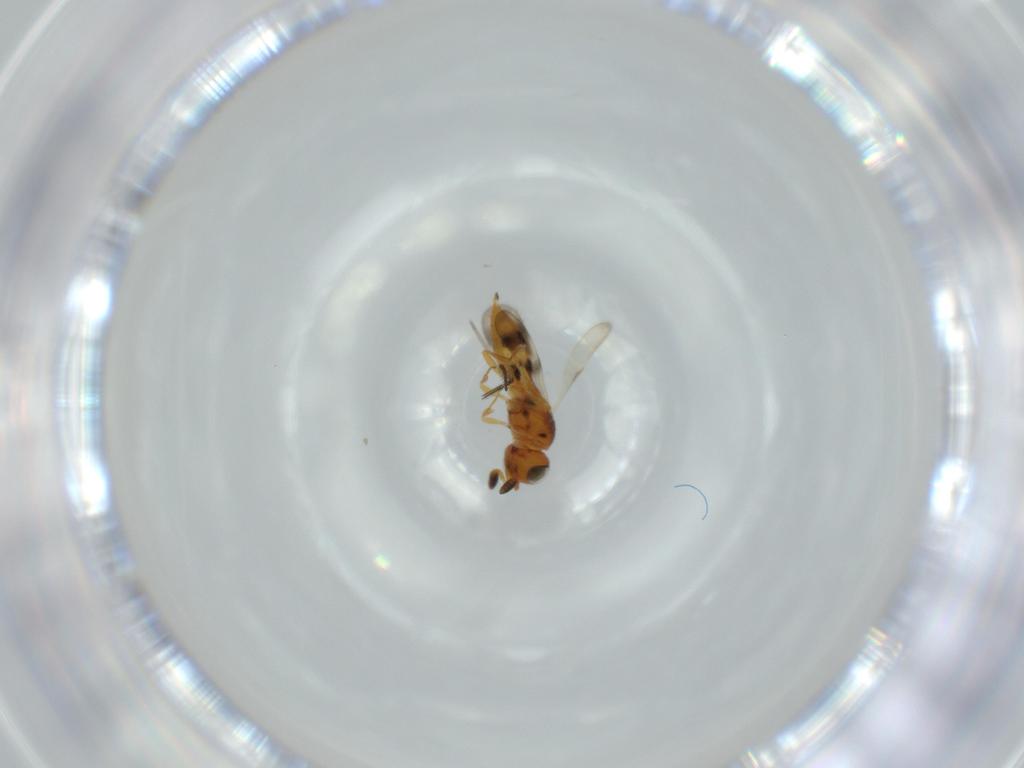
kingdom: Animalia
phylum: Arthropoda
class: Insecta
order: Hymenoptera
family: Scelionidae
